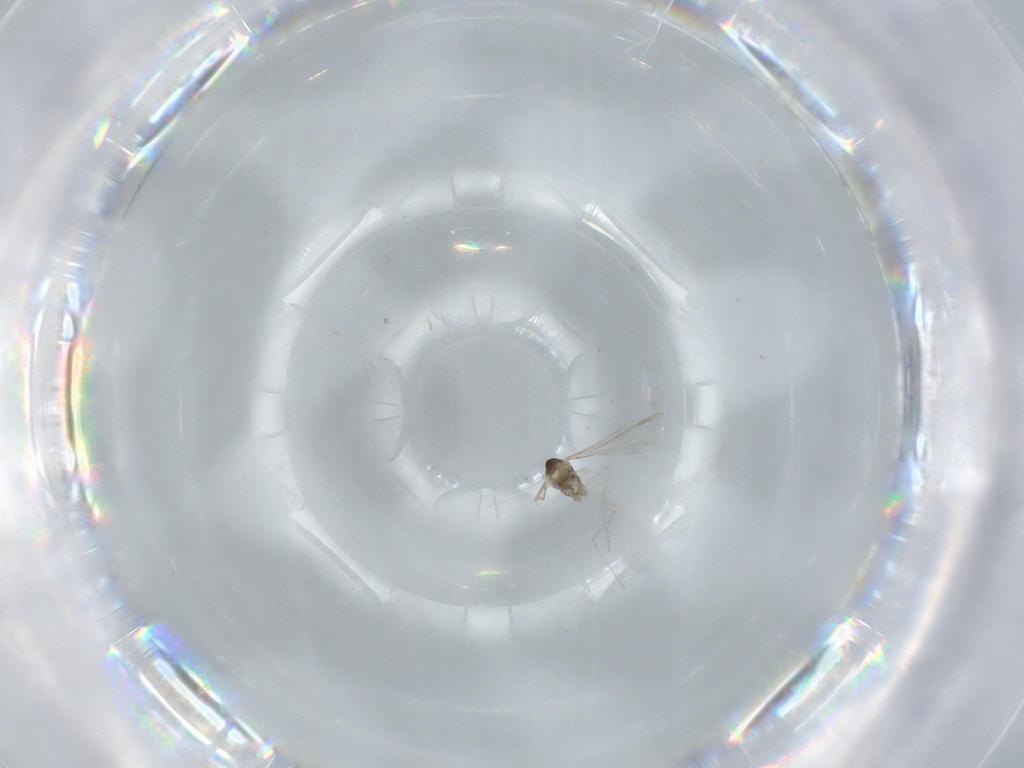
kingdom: Animalia
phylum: Arthropoda
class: Insecta
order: Diptera
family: Cecidomyiidae
